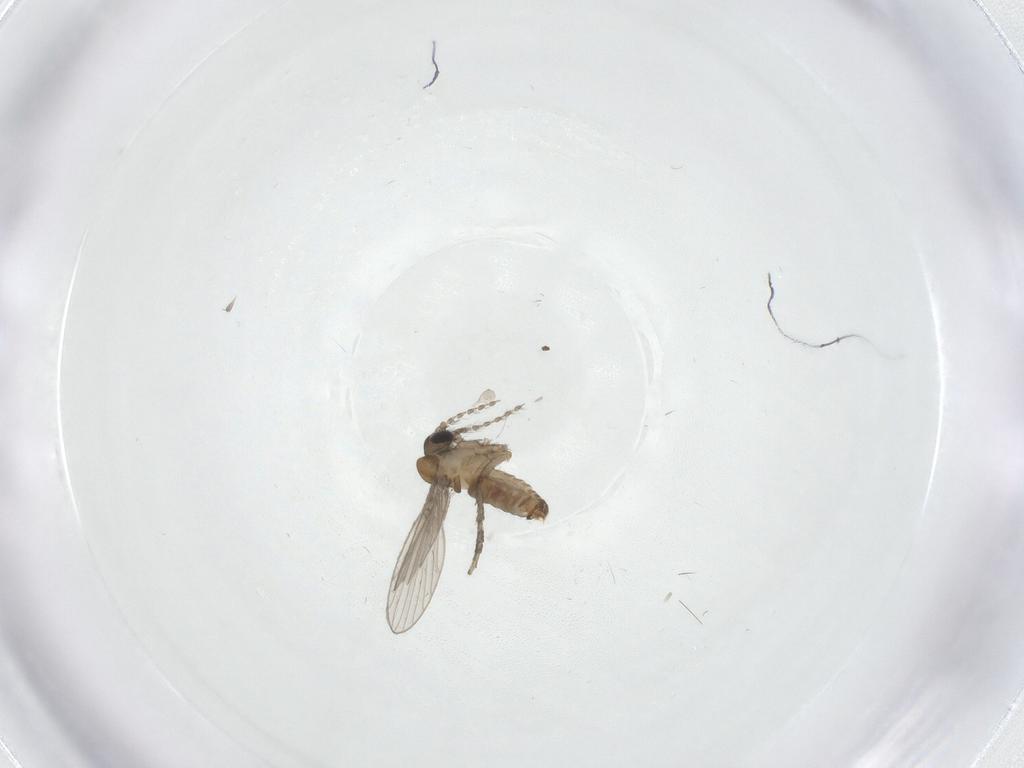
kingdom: Animalia
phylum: Arthropoda
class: Insecta
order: Diptera
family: Psychodidae
